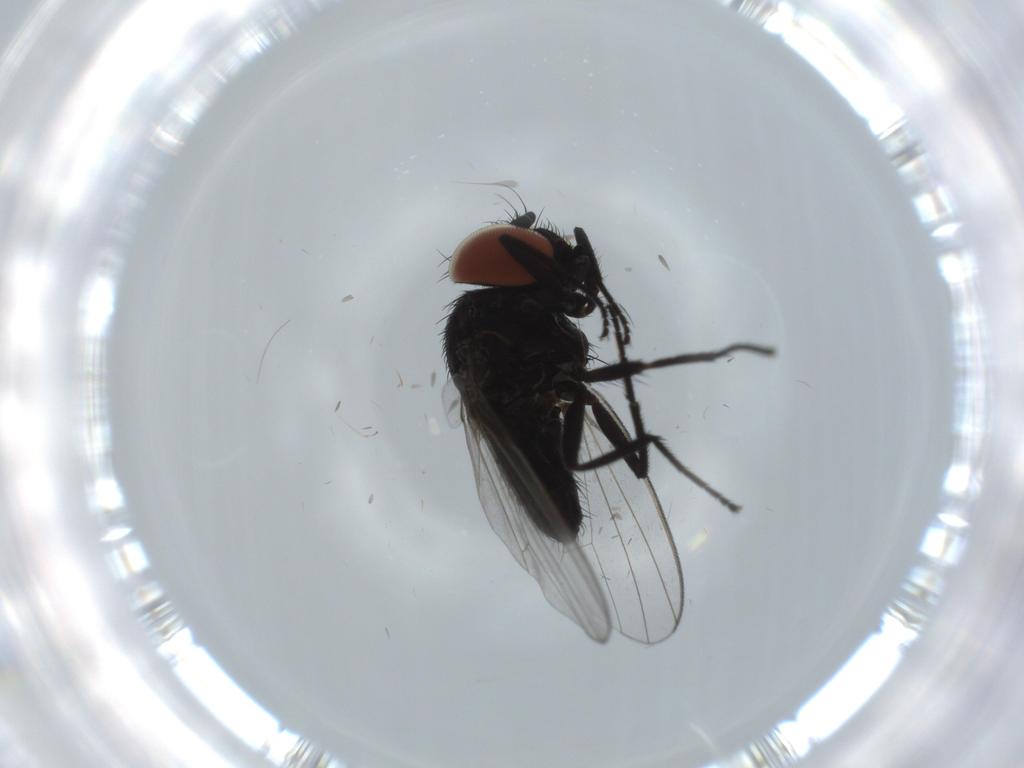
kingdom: Animalia
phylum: Arthropoda
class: Insecta
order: Diptera
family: Milichiidae
